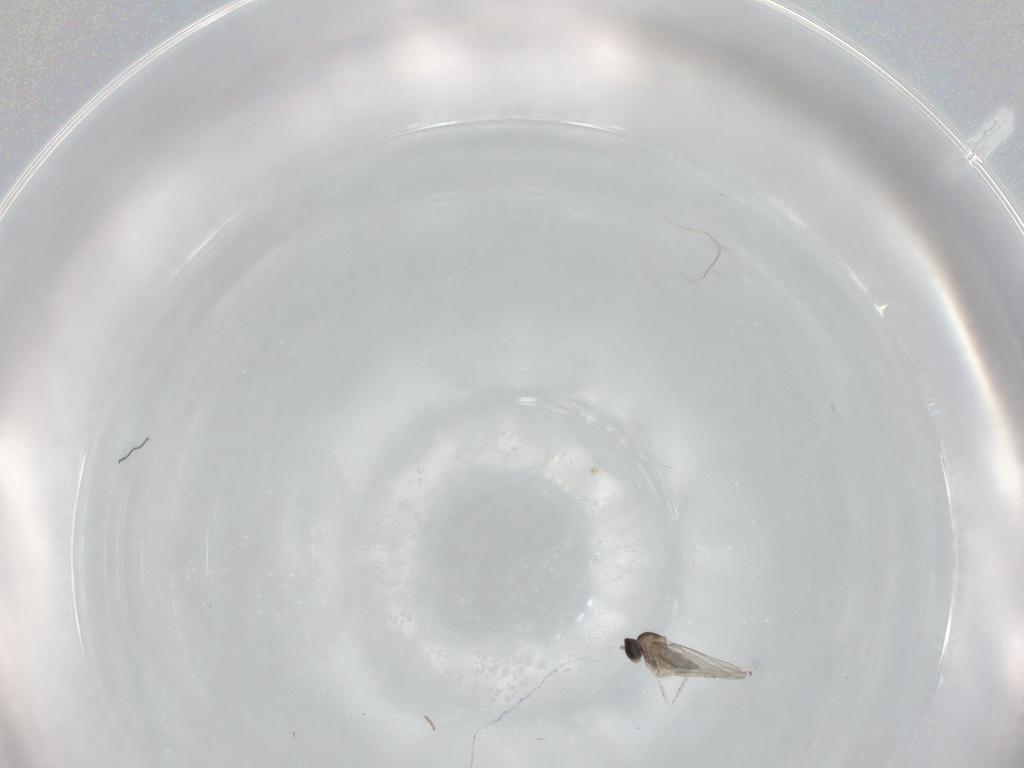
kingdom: Animalia
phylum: Arthropoda
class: Insecta
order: Diptera
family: Cecidomyiidae
